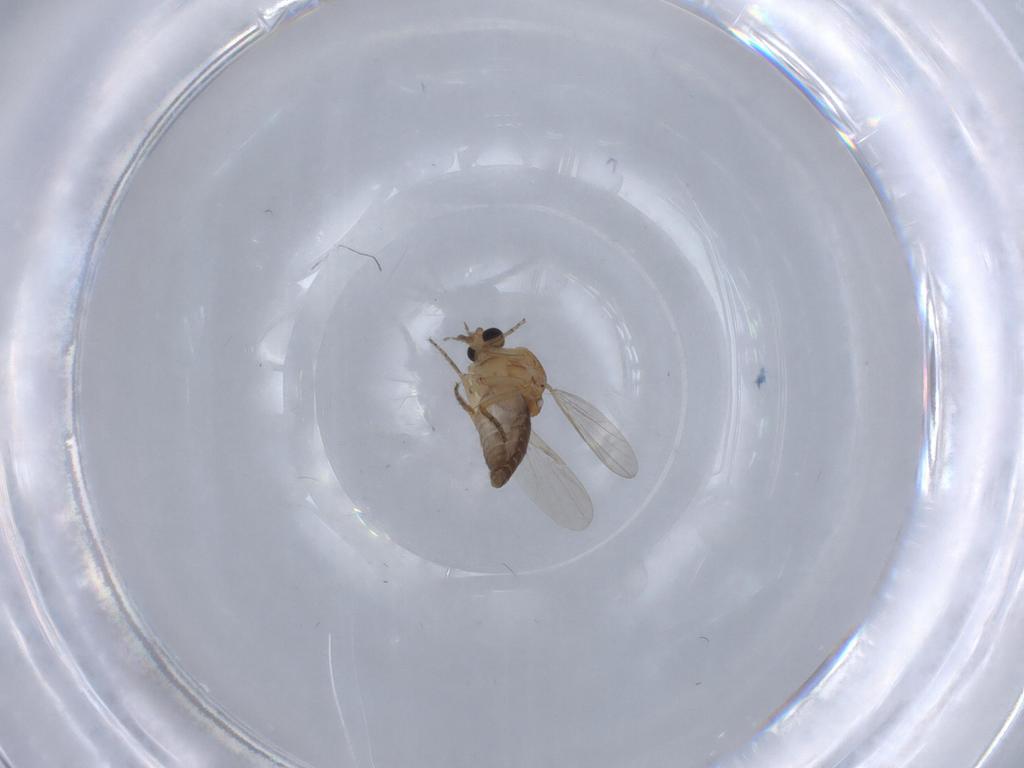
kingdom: Animalia
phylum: Arthropoda
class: Insecta
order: Diptera
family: Ceratopogonidae
